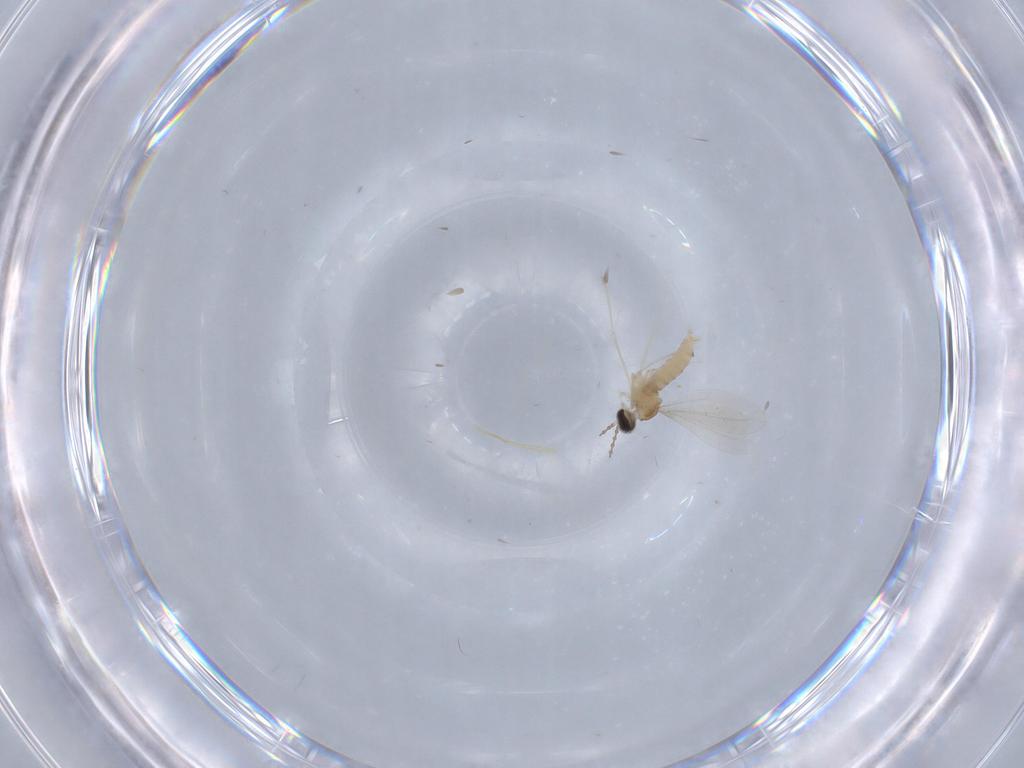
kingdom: Animalia
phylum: Arthropoda
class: Insecta
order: Diptera
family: Cecidomyiidae
